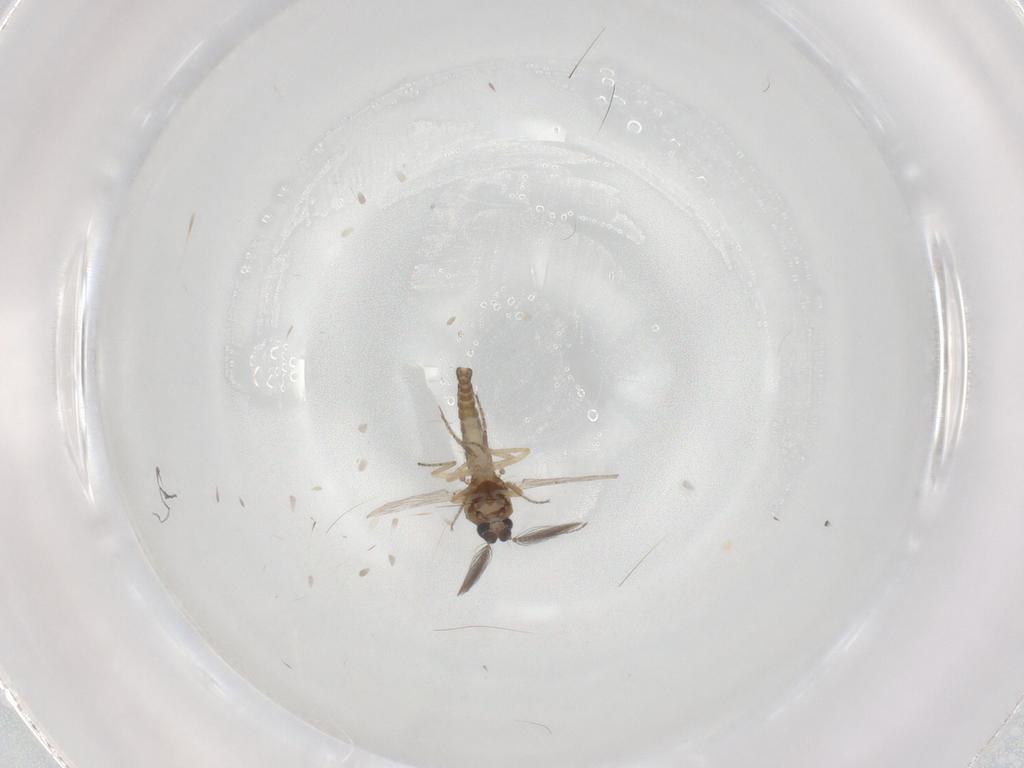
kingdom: Animalia
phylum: Arthropoda
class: Insecta
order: Diptera
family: Ceratopogonidae
